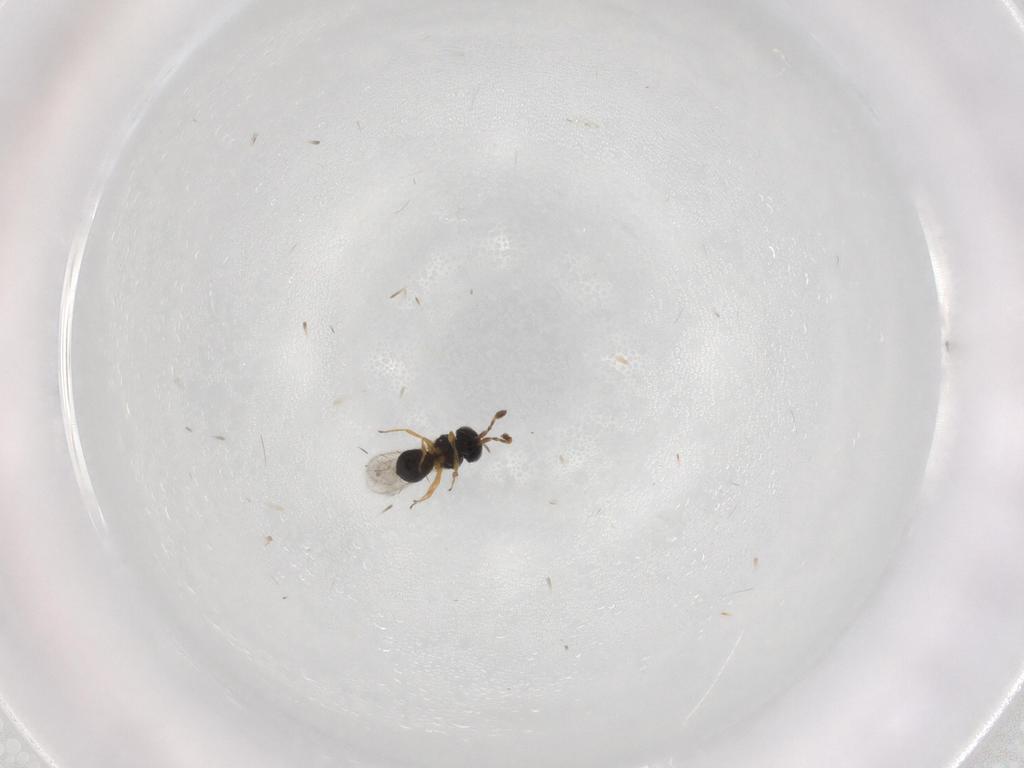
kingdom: Animalia
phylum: Arthropoda
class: Insecta
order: Hymenoptera
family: Scelionidae
